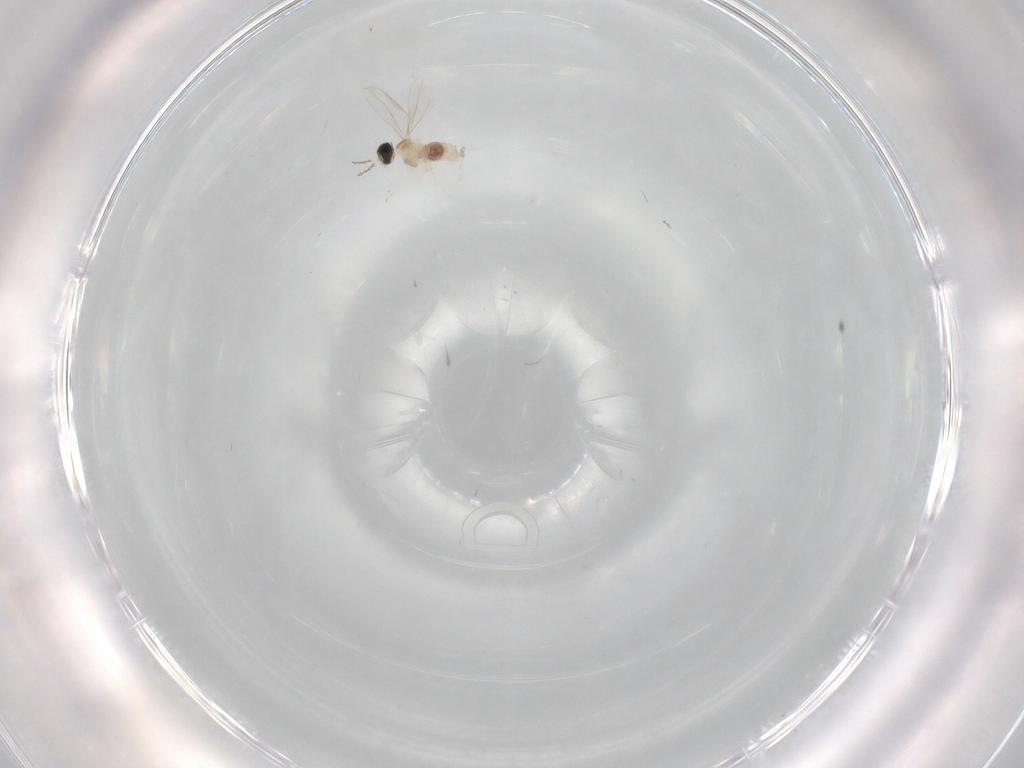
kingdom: Animalia
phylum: Arthropoda
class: Insecta
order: Diptera
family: Cecidomyiidae
